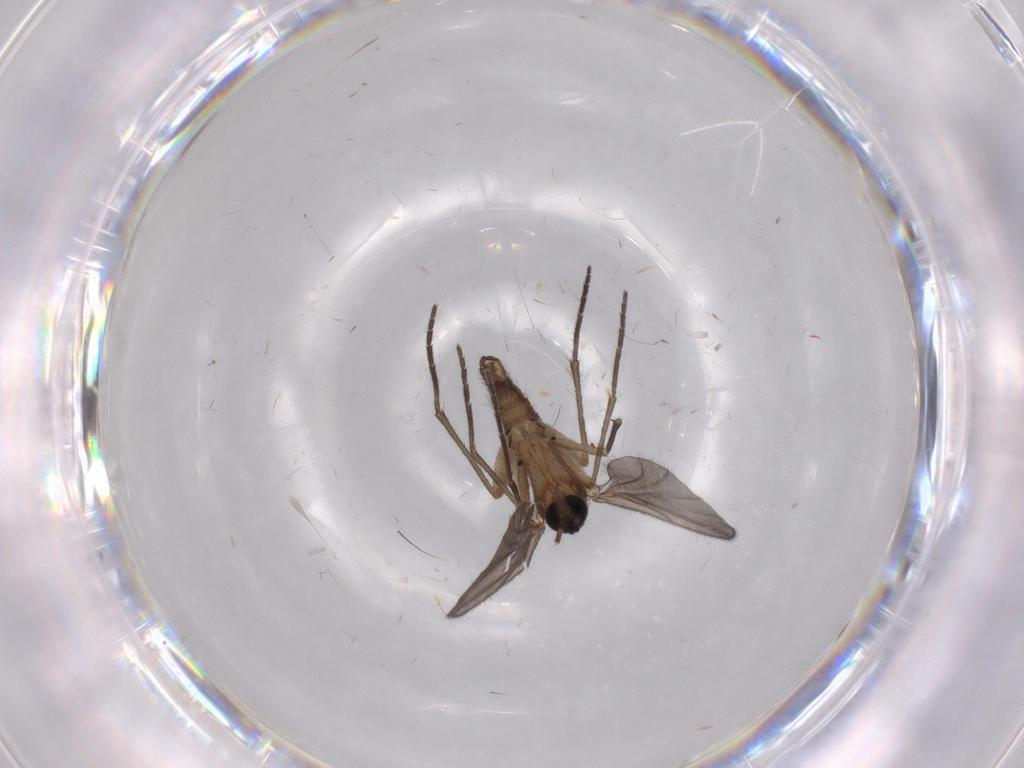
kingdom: Animalia
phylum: Arthropoda
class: Insecta
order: Diptera
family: Sciaridae
